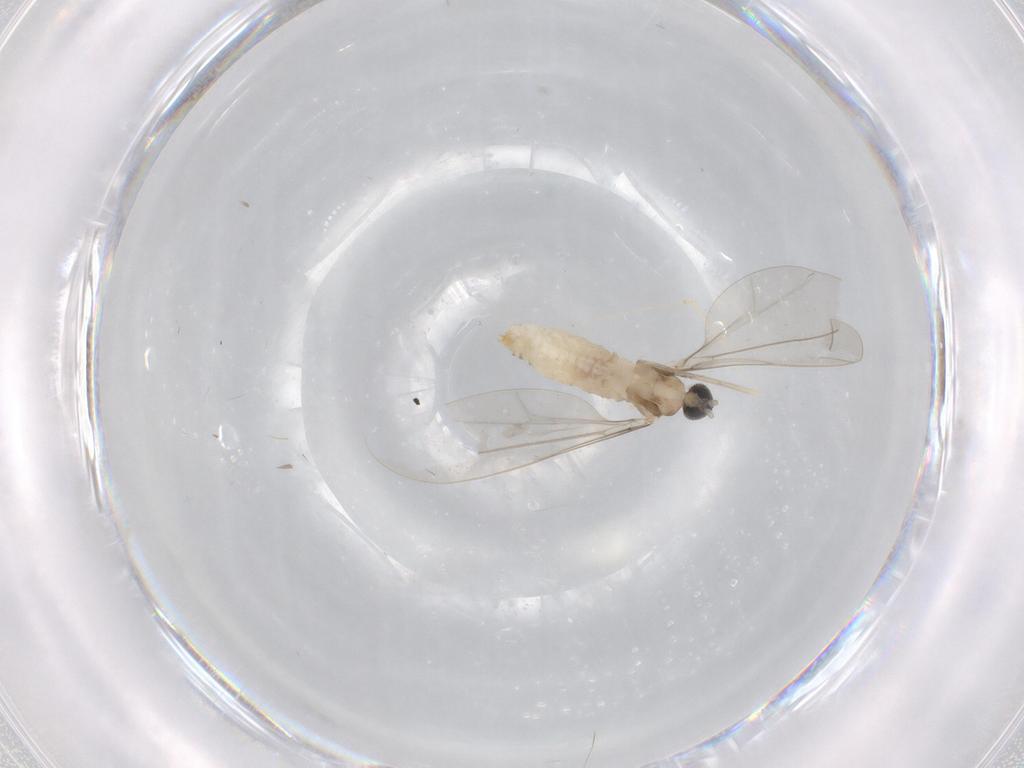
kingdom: Animalia
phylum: Arthropoda
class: Insecta
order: Diptera
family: Cecidomyiidae
